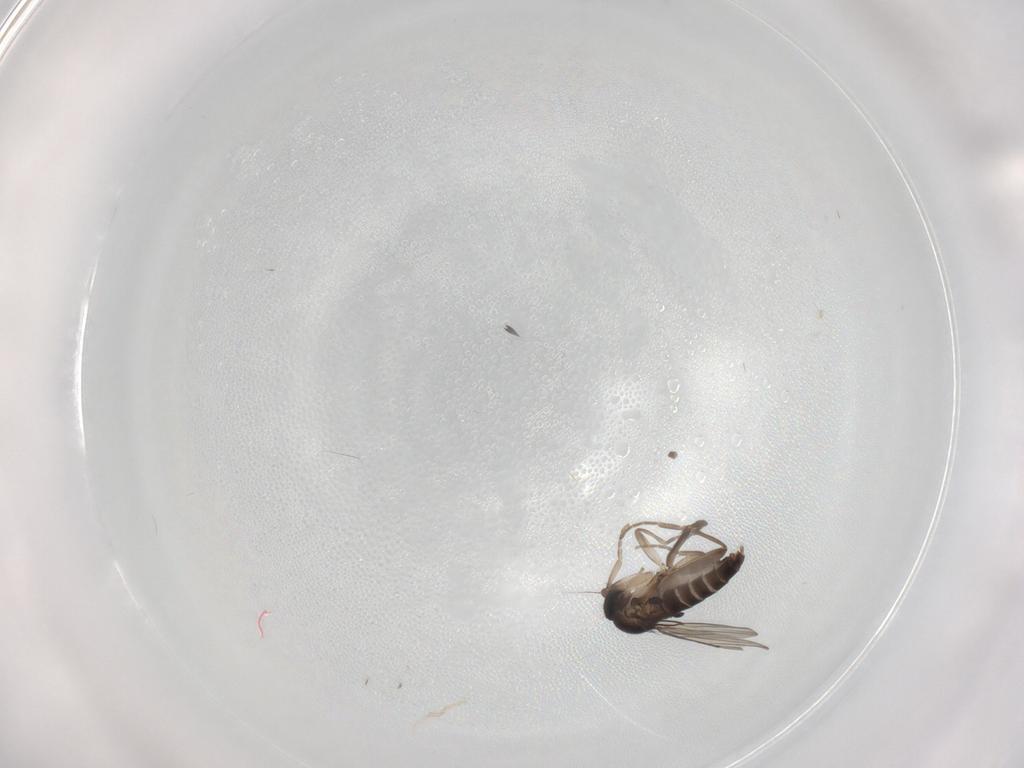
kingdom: Animalia
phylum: Arthropoda
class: Insecta
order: Diptera
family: Phoridae
